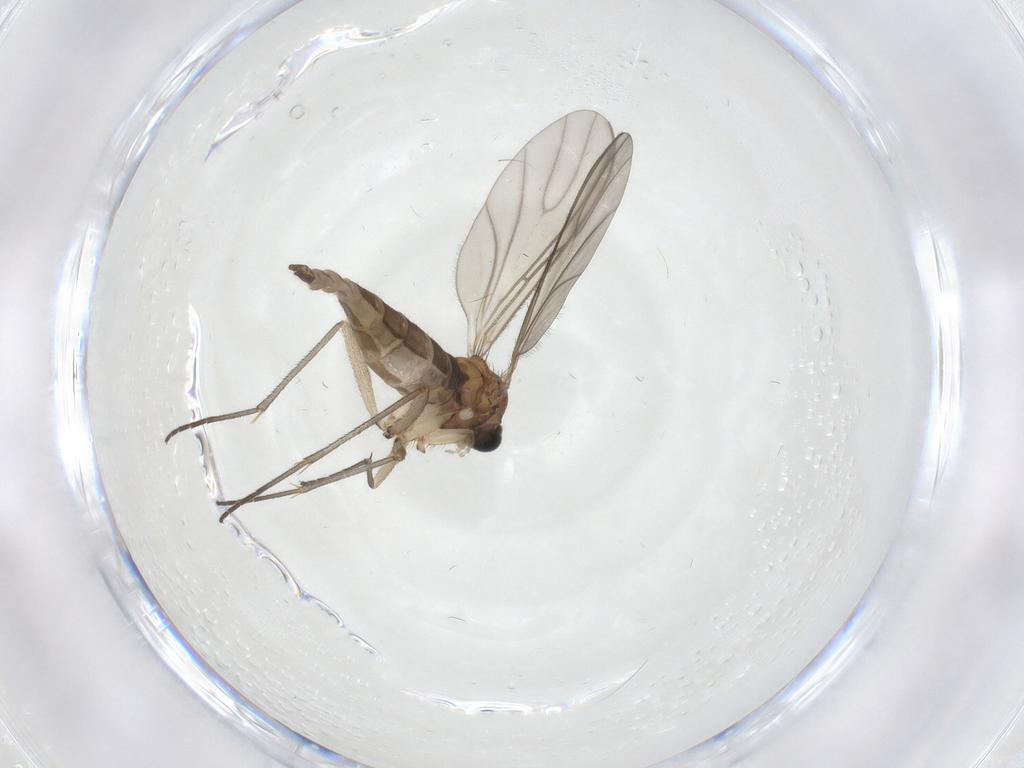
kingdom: Animalia
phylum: Arthropoda
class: Insecta
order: Diptera
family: Sciaridae
